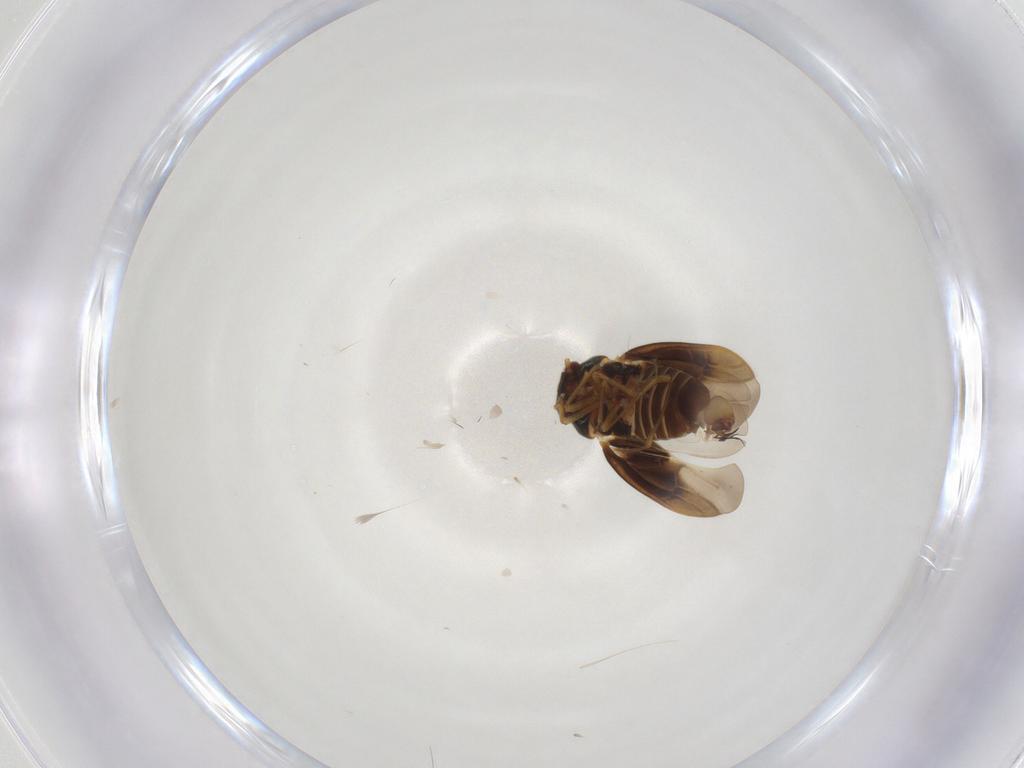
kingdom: Animalia
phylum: Arthropoda
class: Insecta
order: Hemiptera
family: Schizopteridae
